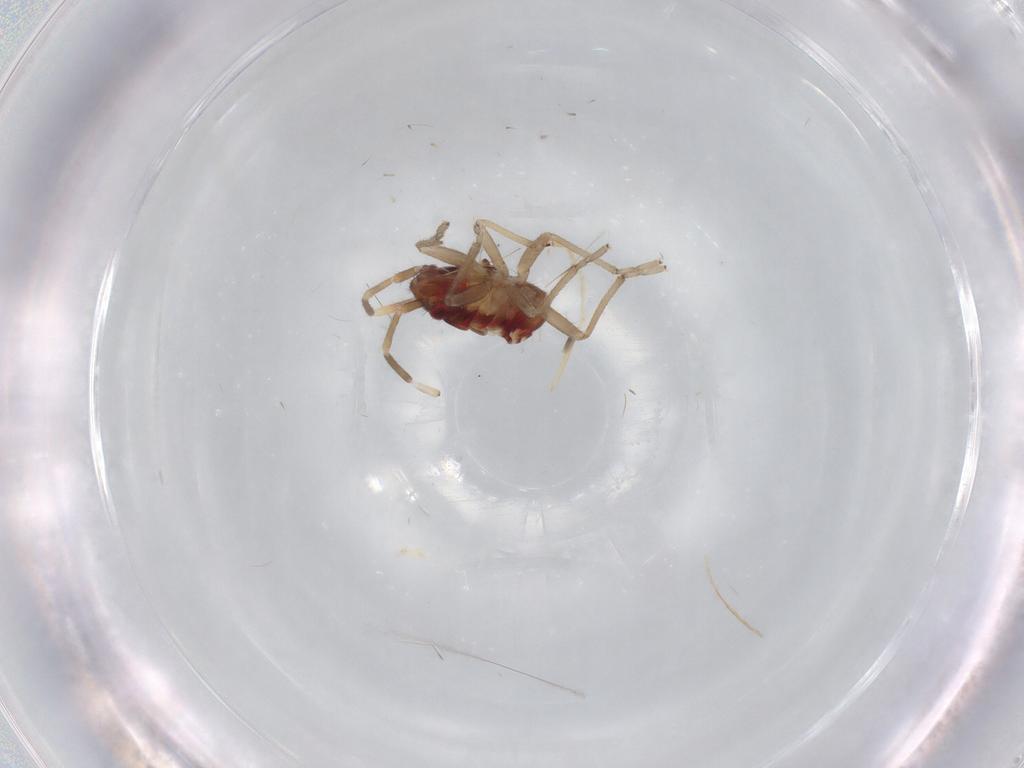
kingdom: Animalia
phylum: Arthropoda
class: Insecta
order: Hemiptera
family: Rhyparochromidae
